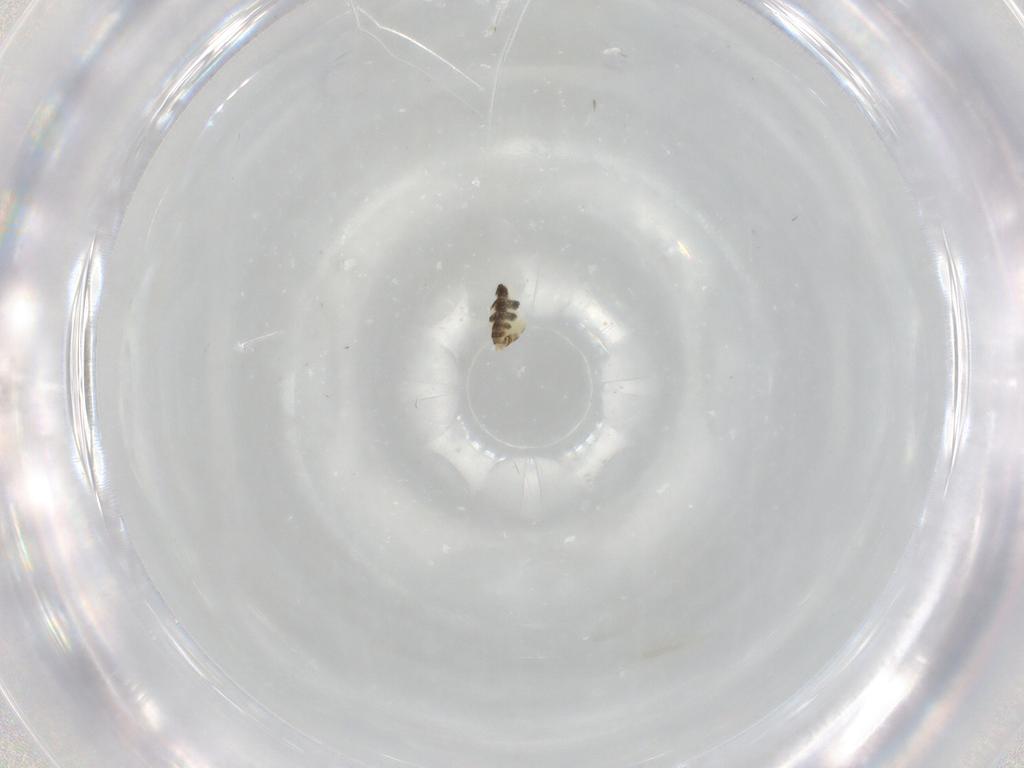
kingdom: Animalia
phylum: Arthropoda
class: Insecta
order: Diptera
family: Chironomidae
